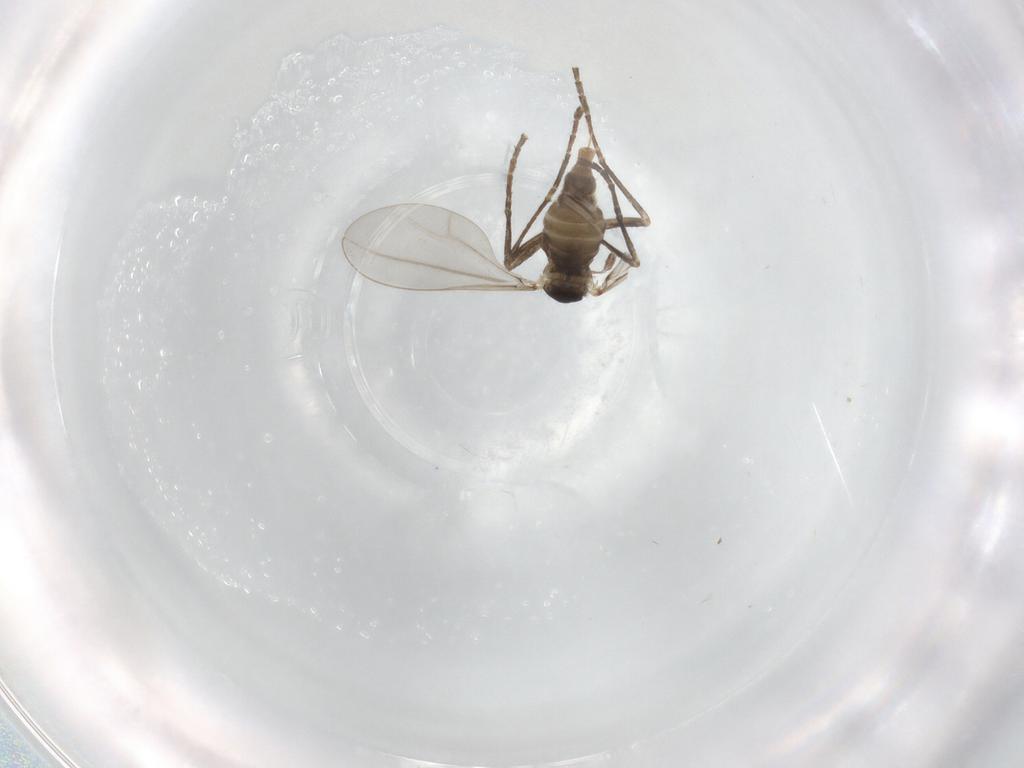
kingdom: Animalia
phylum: Arthropoda
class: Insecta
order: Diptera
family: Cecidomyiidae
